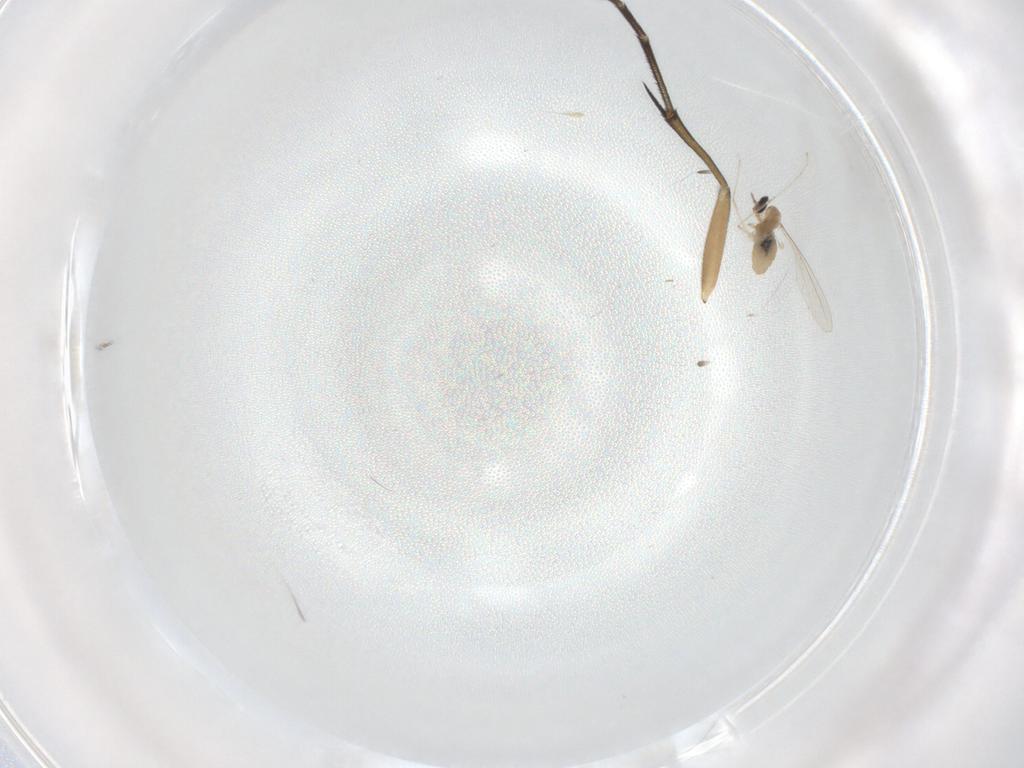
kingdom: Animalia
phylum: Arthropoda
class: Insecta
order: Diptera
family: Cecidomyiidae
